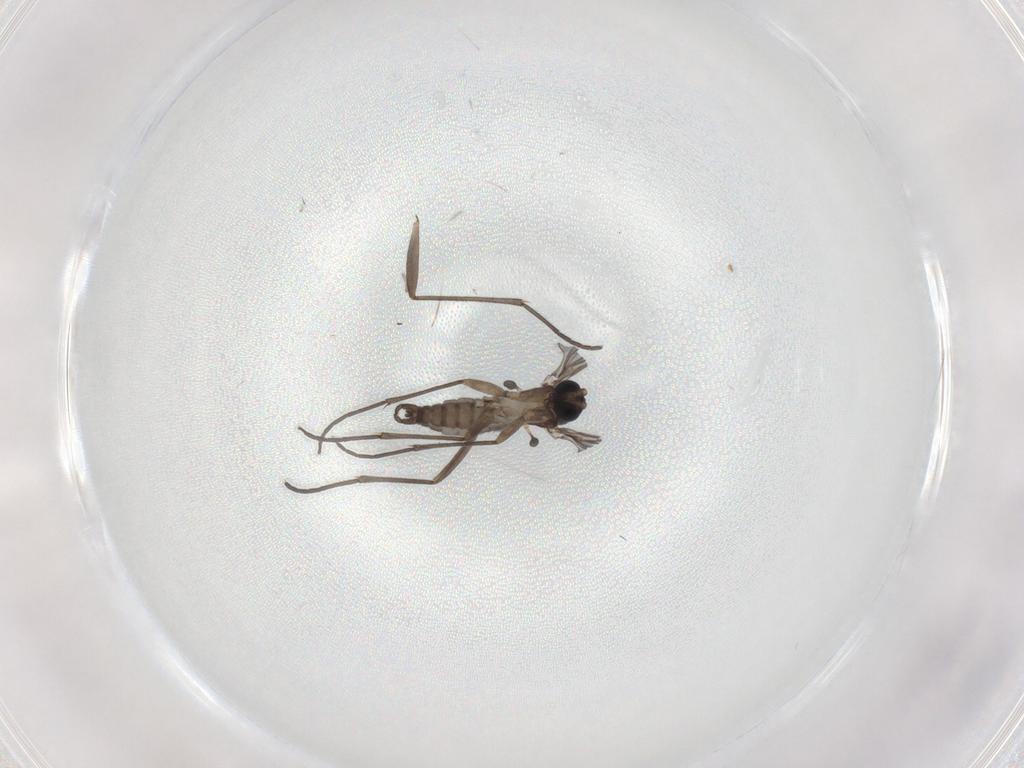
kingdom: Animalia
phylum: Arthropoda
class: Insecta
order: Diptera
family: Sciaridae
